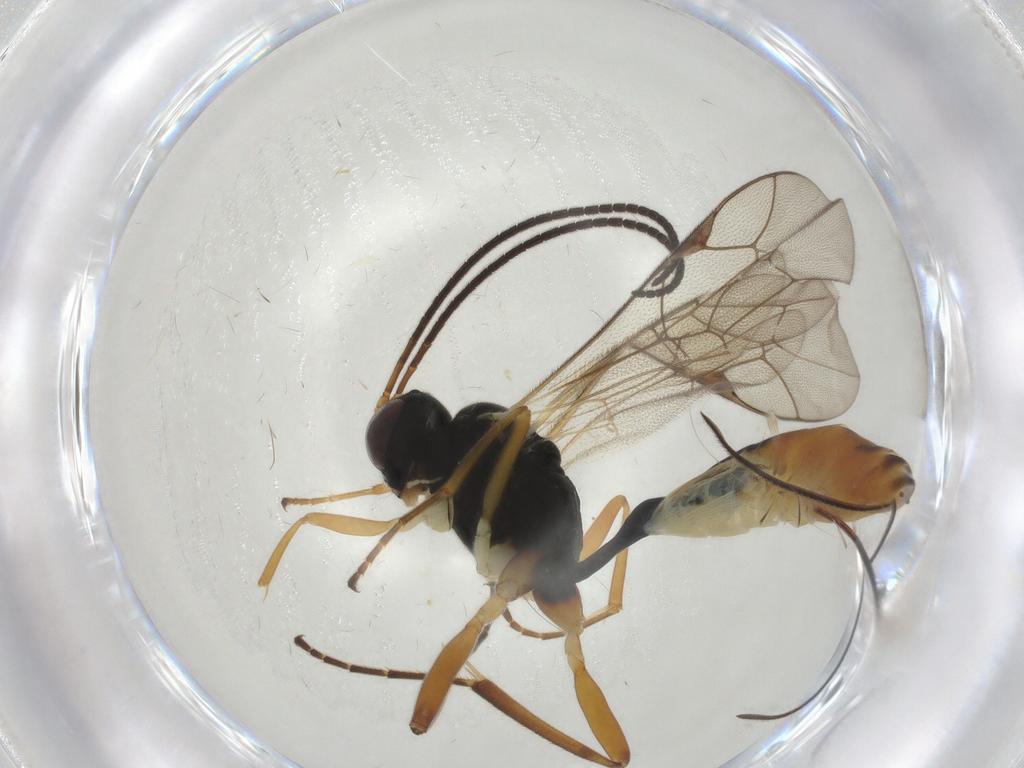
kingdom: Animalia
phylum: Arthropoda
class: Insecta
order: Hymenoptera
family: Ichneumonidae
